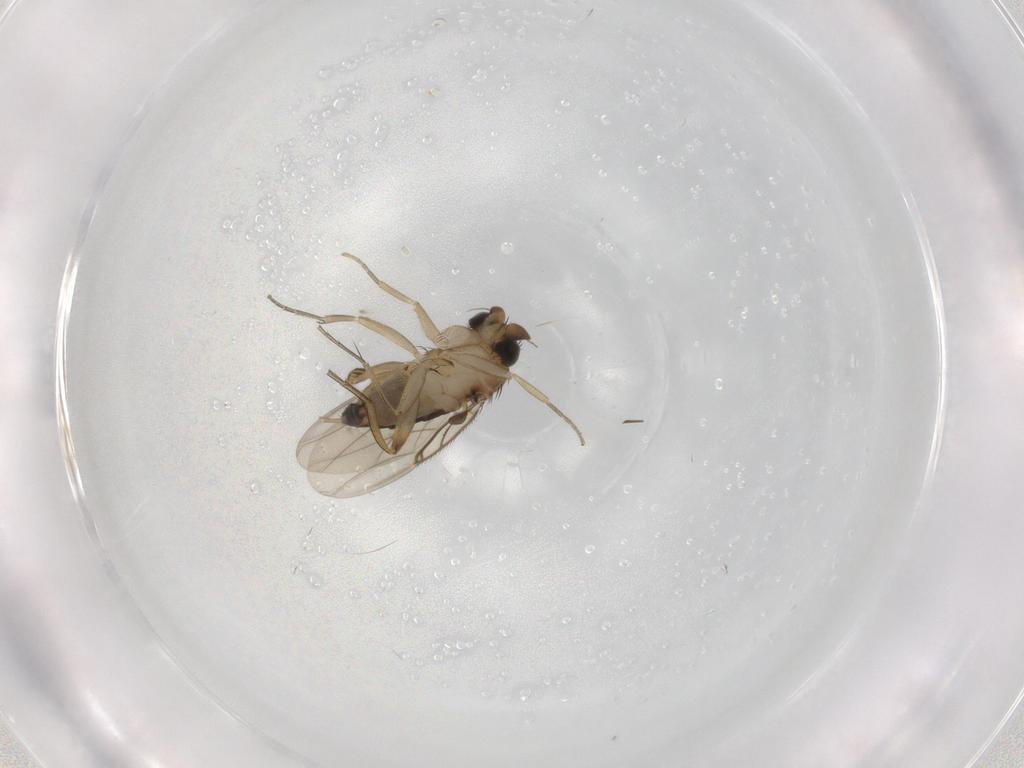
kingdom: Animalia
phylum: Arthropoda
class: Insecta
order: Diptera
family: Phoridae
